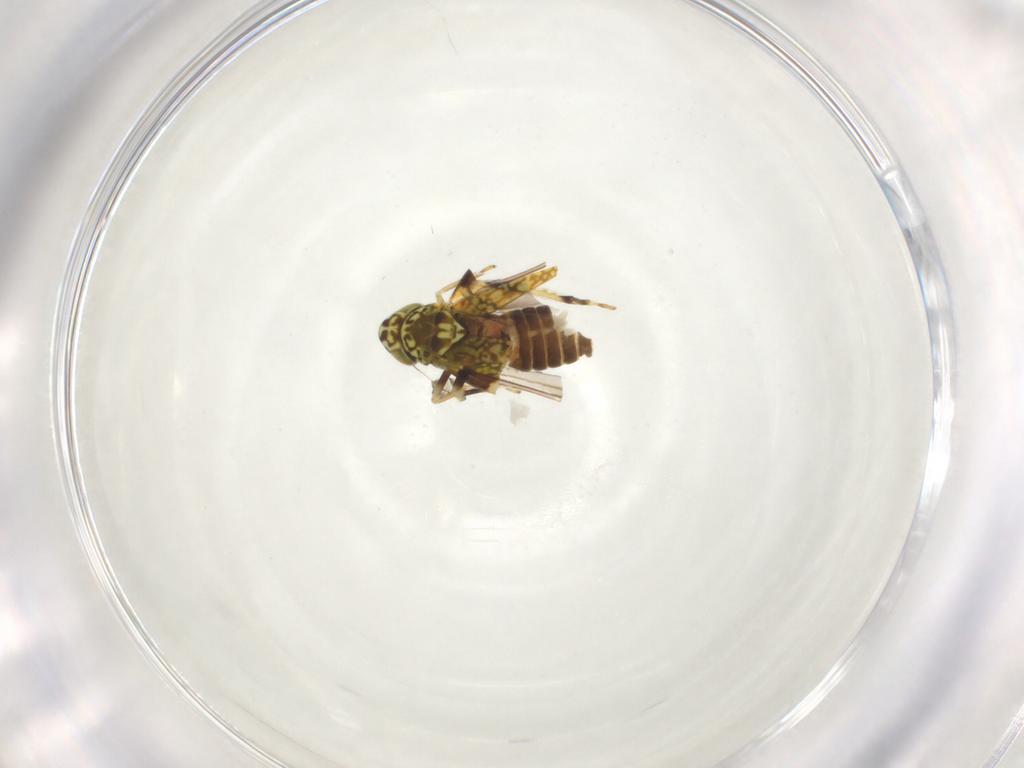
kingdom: Animalia
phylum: Arthropoda
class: Insecta
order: Hemiptera
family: Cicadellidae
